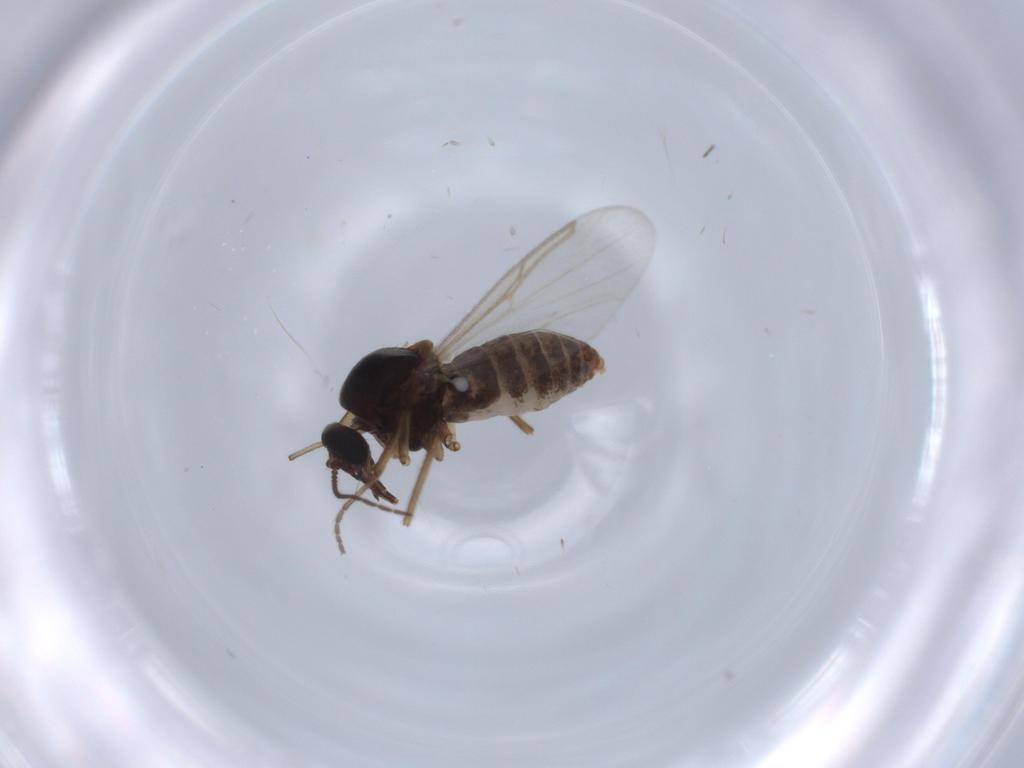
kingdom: Animalia
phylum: Arthropoda
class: Insecta
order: Diptera
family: Ceratopogonidae
